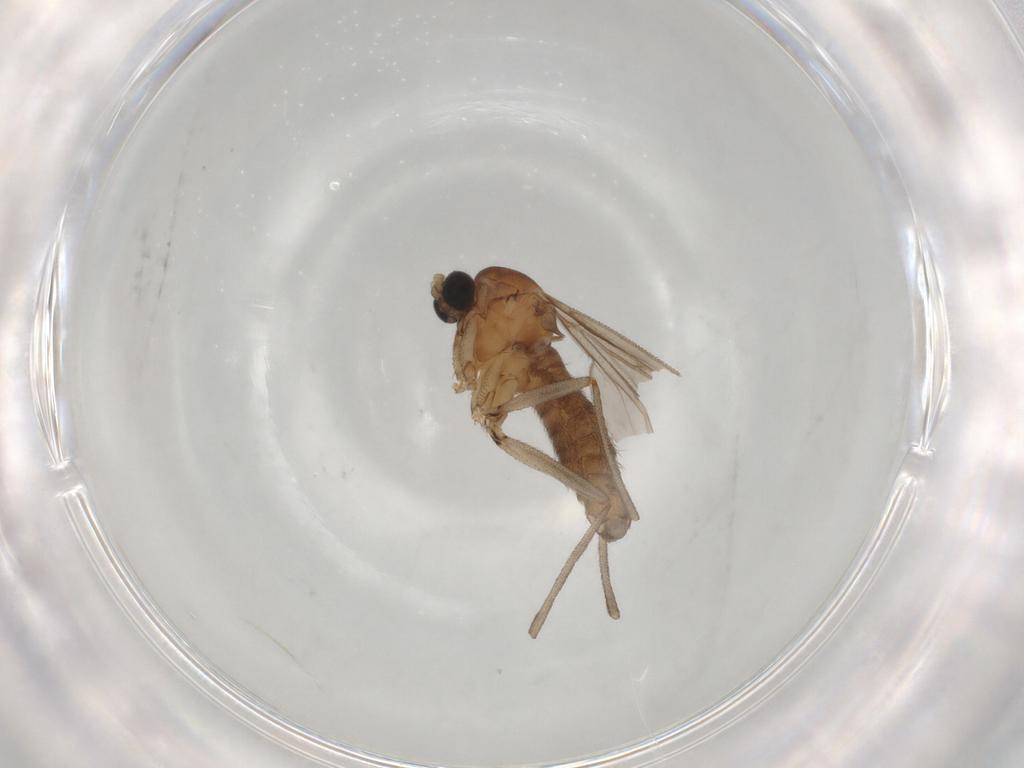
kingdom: Animalia
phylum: Arthropoda
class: Insecta
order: Diptera
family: Sciaridae
